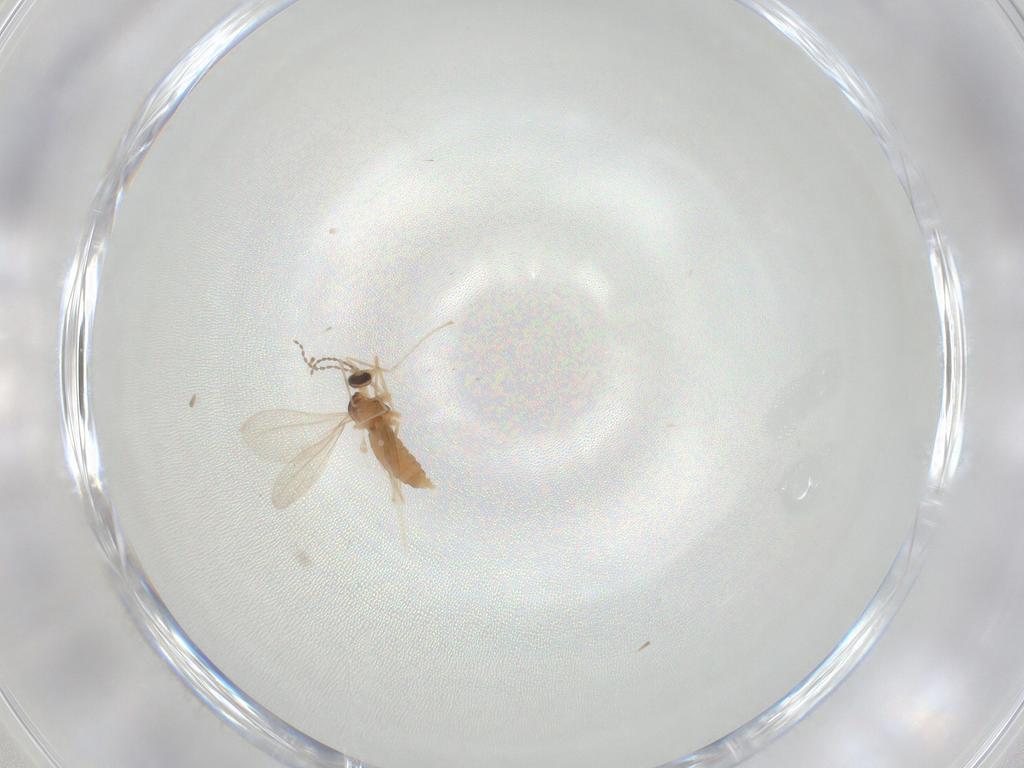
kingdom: Animalia
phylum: Arthropoda
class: Insecta
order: Diptera
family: Cecidomyiidae
